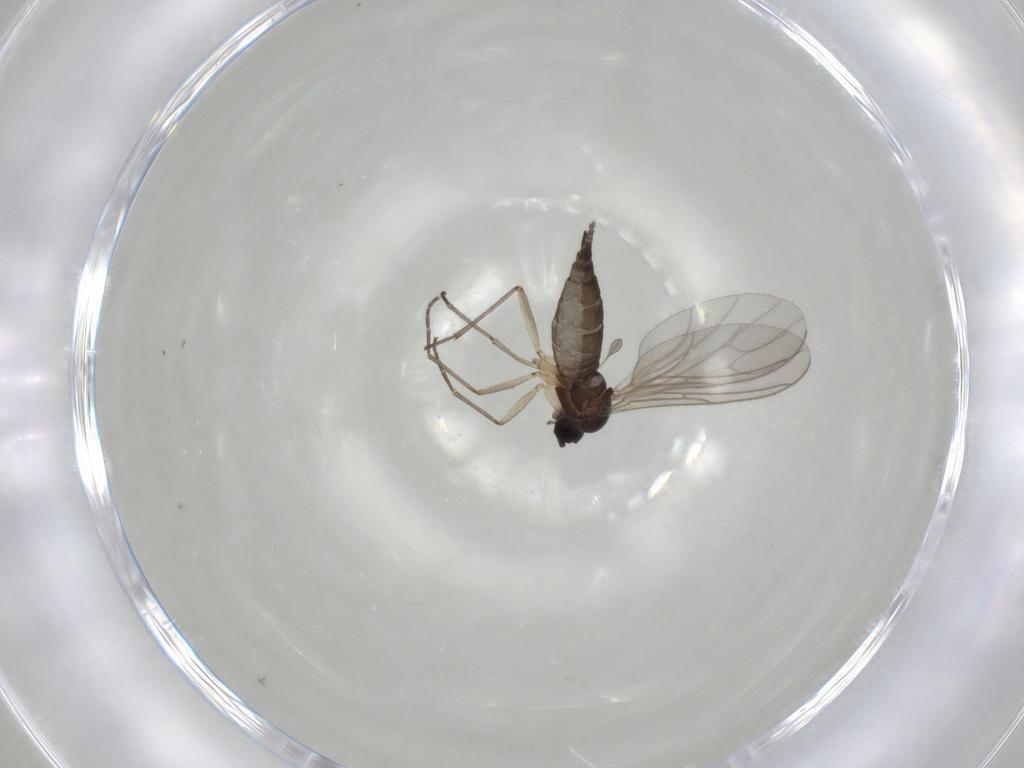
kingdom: Animalia
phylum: Arthropoda
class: Insecta
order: Diptera
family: Sciaridae
